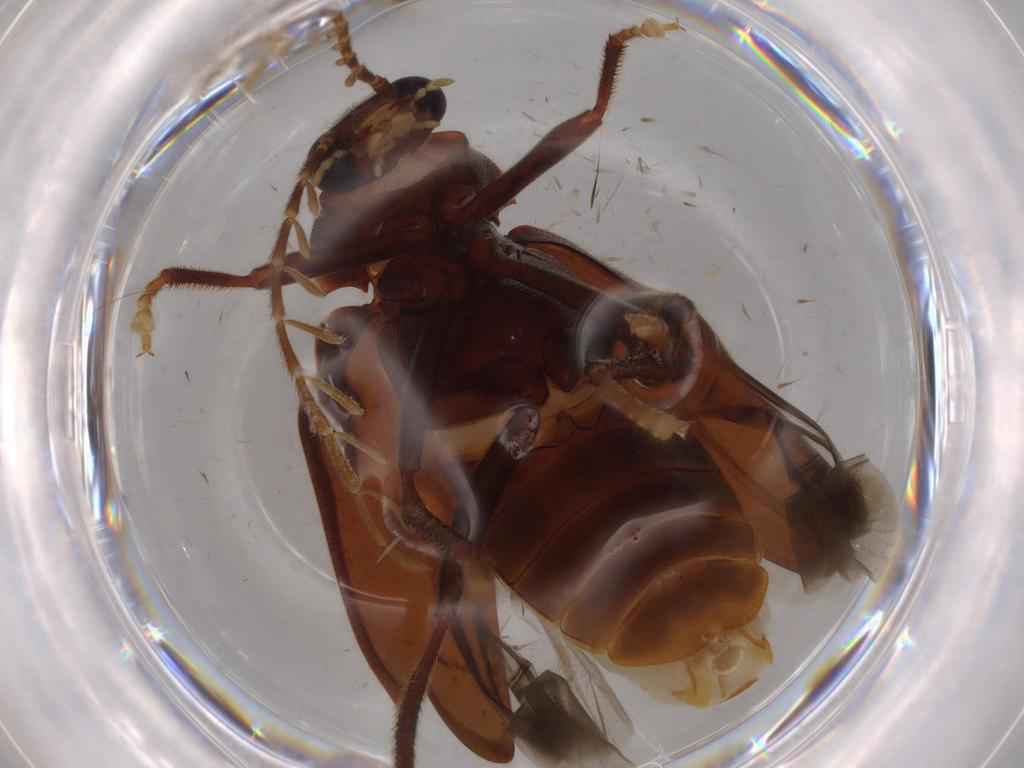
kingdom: Animalia
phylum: Arthropoda
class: Insecta
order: Coleoptera
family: Ptilodactylidae
